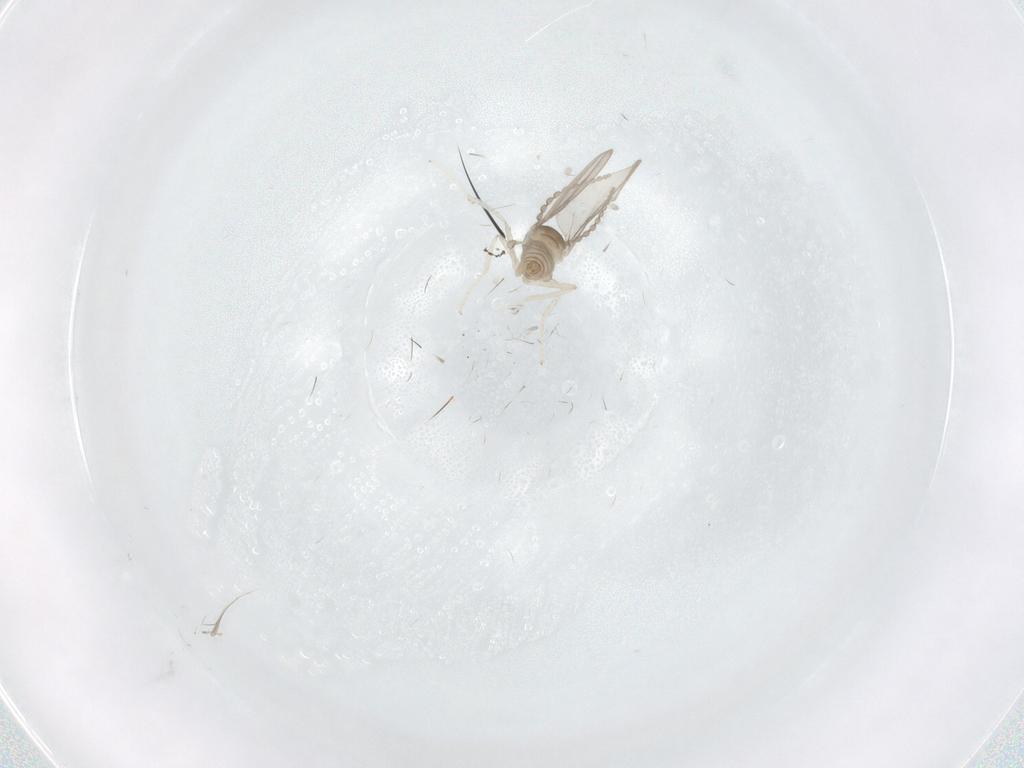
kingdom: Animalia
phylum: Arthropoda
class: Insecta
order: Diptera
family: Cecidomyiidae
